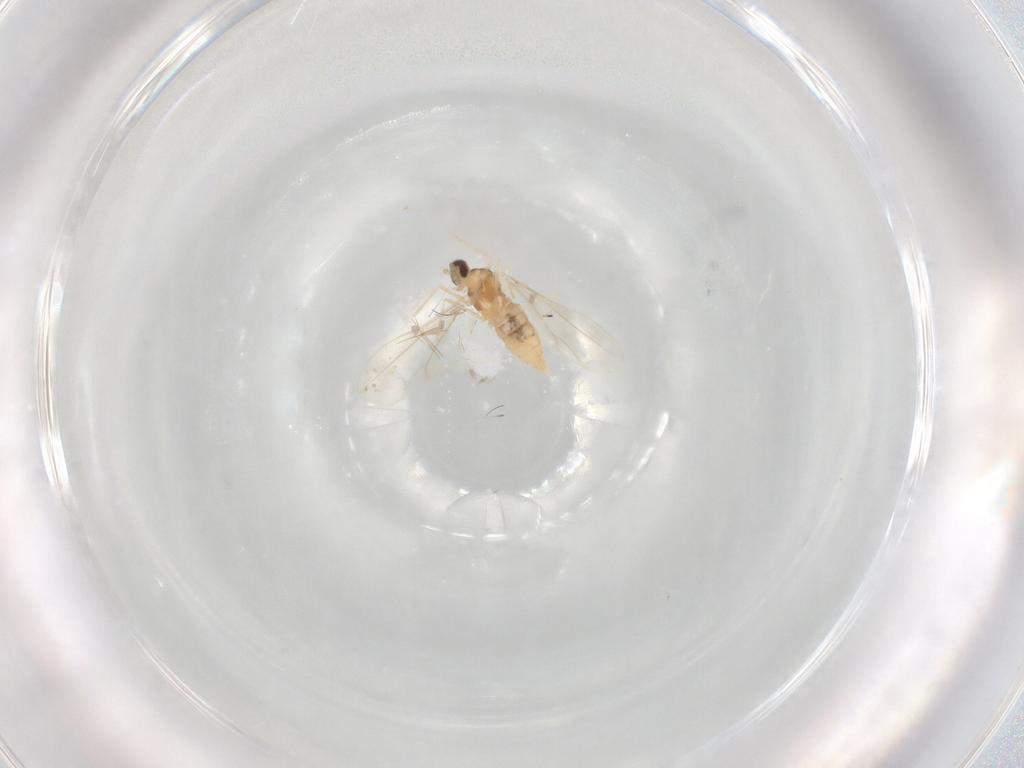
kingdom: Animalia
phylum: Arthropoda
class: Insecta
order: Diptera
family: Cecidomyiidae
